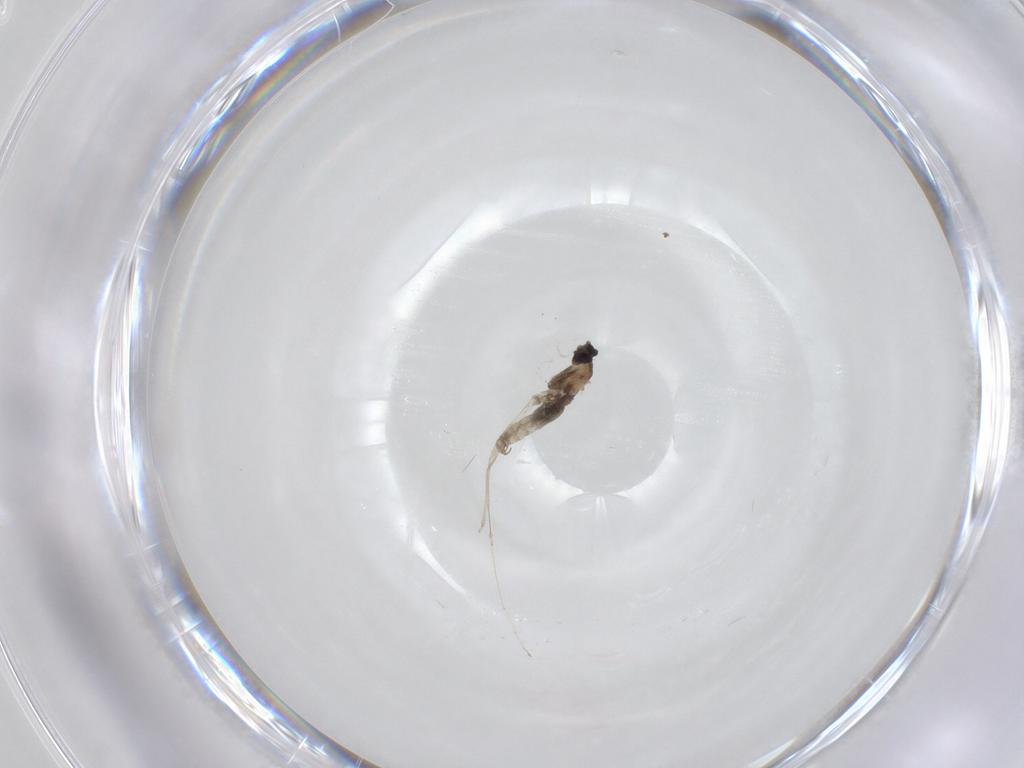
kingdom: Animalia
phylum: Arthropoda
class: Insecta
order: Diptera
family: Cecidomyiidae
